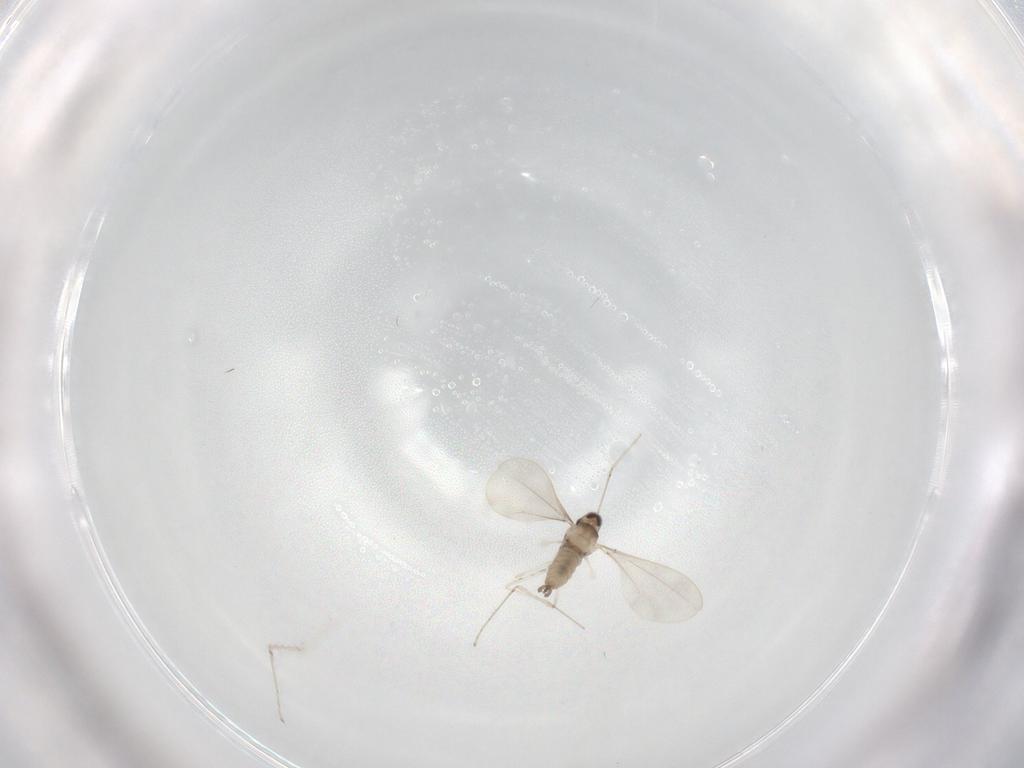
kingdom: Animalia
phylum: Arthropoda
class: Insecta
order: Diptera
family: Cecidomyiidae
